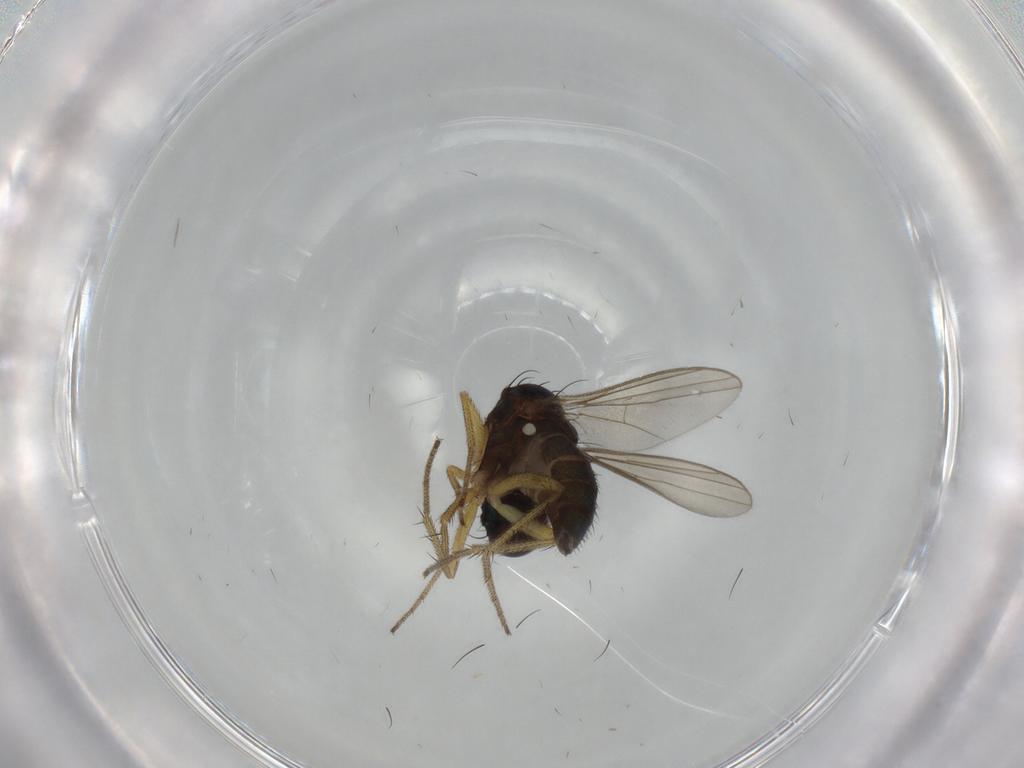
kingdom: Animalia
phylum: Arthropoda
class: Insecta
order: Diptera
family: Dolichopodidae
